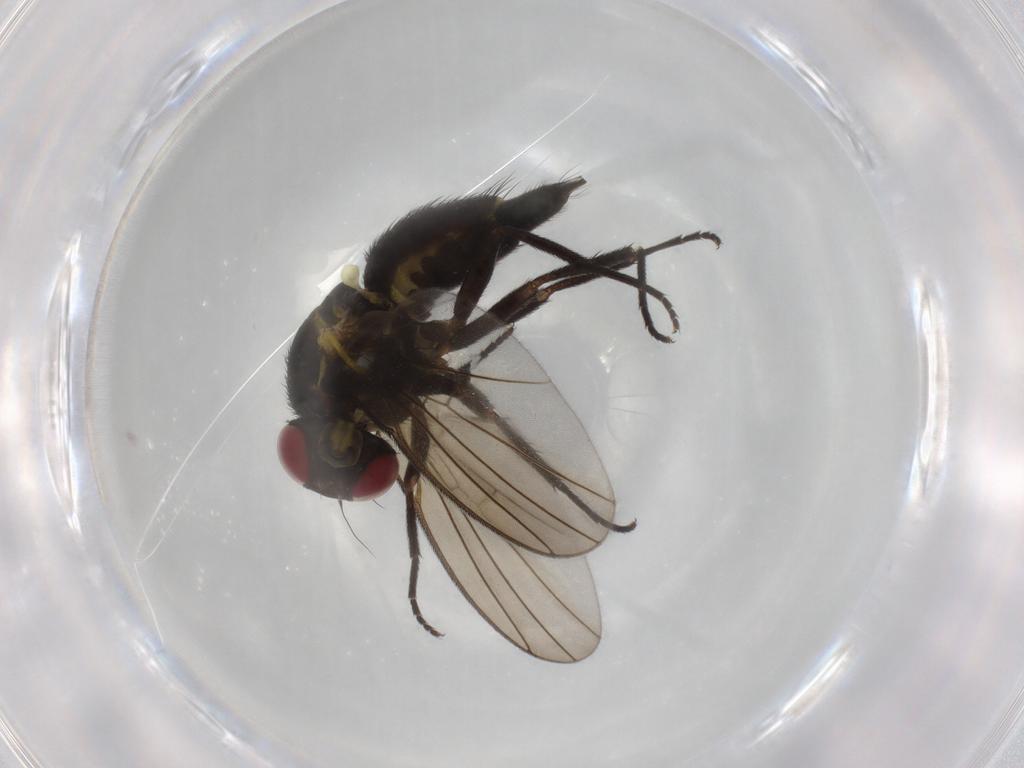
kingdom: Animalia
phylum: Arthropoda
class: Insecta
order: Diptera
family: Agromyzidae
